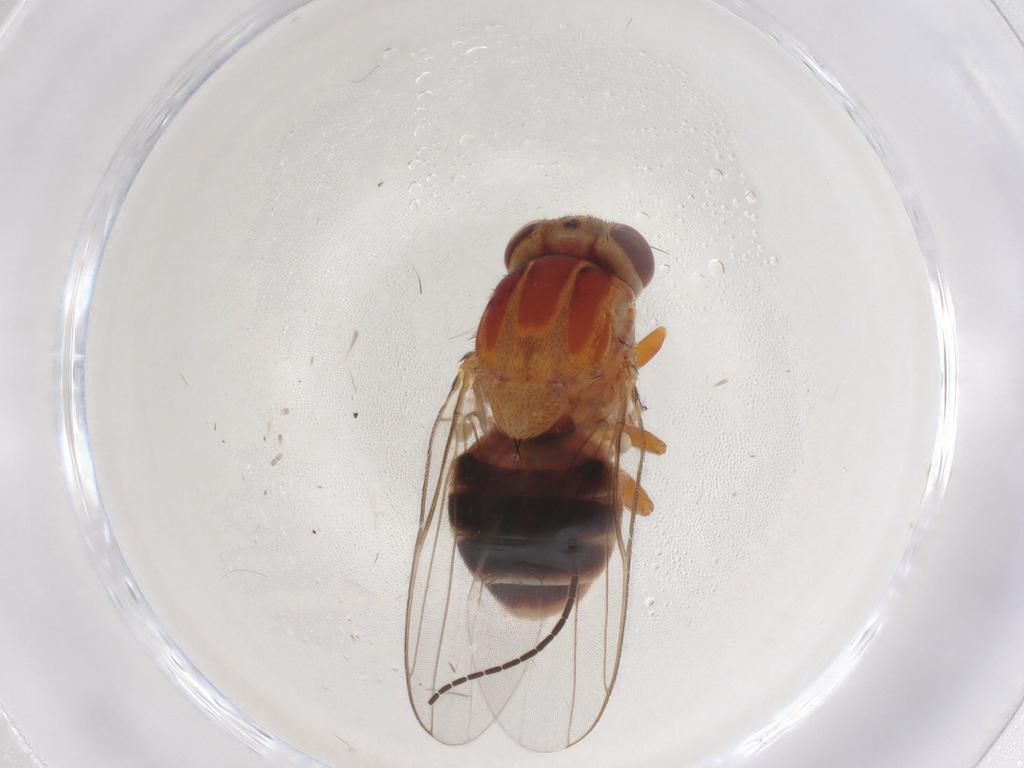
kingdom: Animalia
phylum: Arthropoda
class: Insecta
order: Diptera
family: Chloropidae
